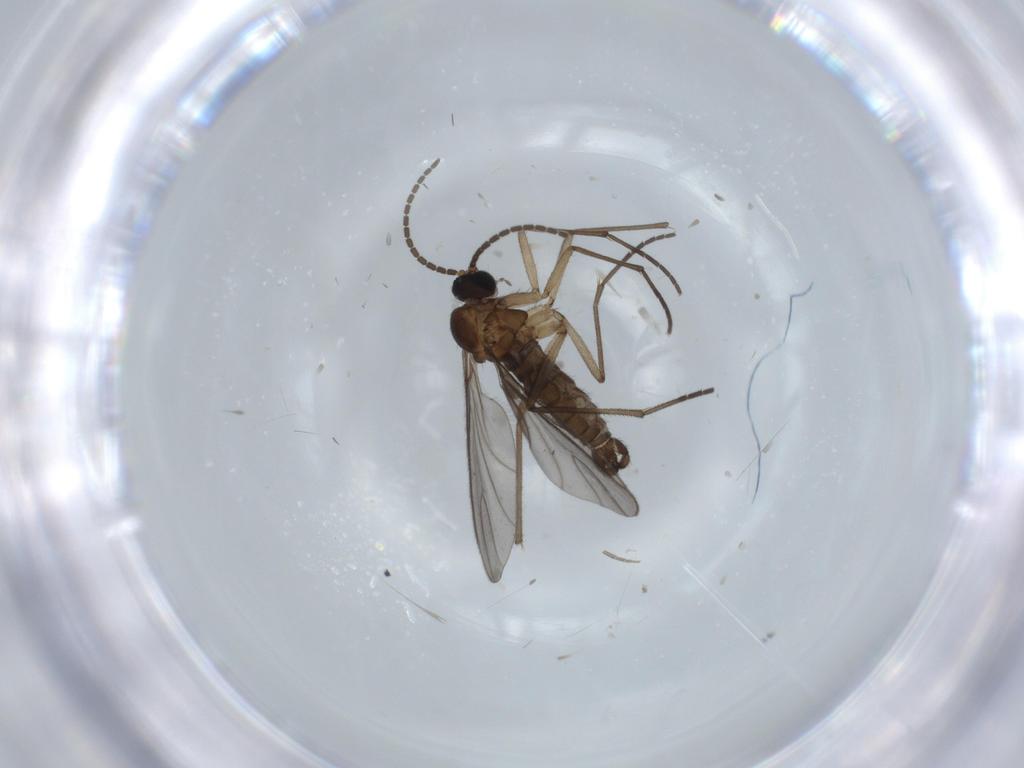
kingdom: Animalia
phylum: Arthropoda
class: Insecta
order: Diptera
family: Sciaridae
